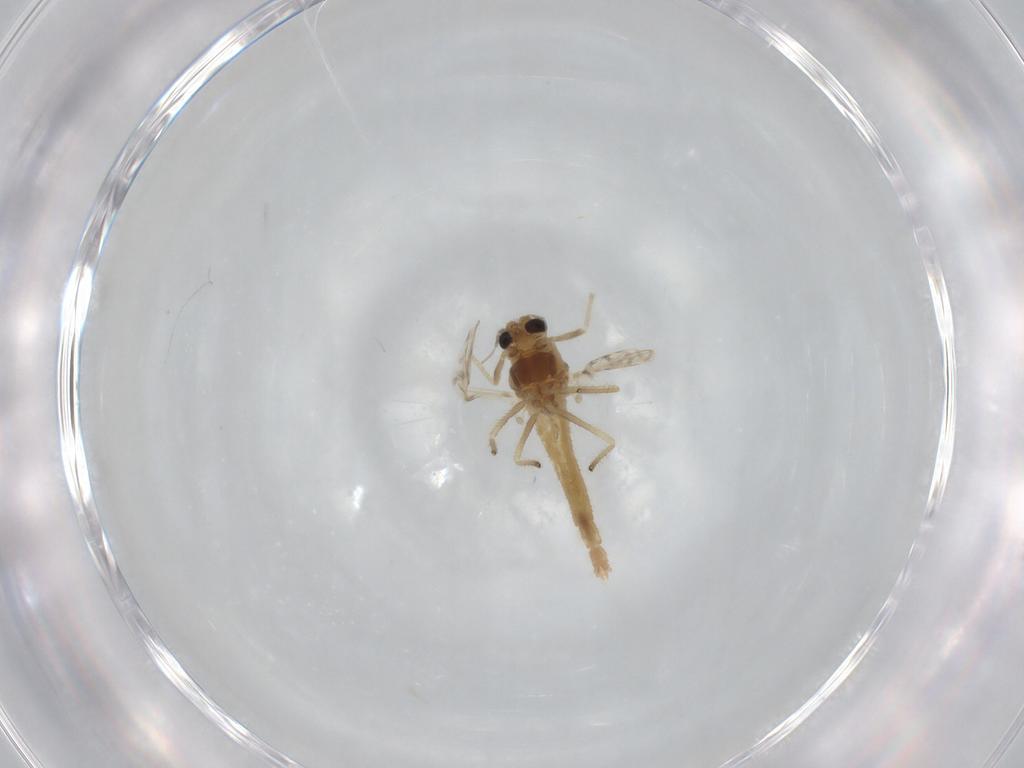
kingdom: Animalia
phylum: Arthropoda
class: Insecta
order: Diptera
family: Chironomidae
